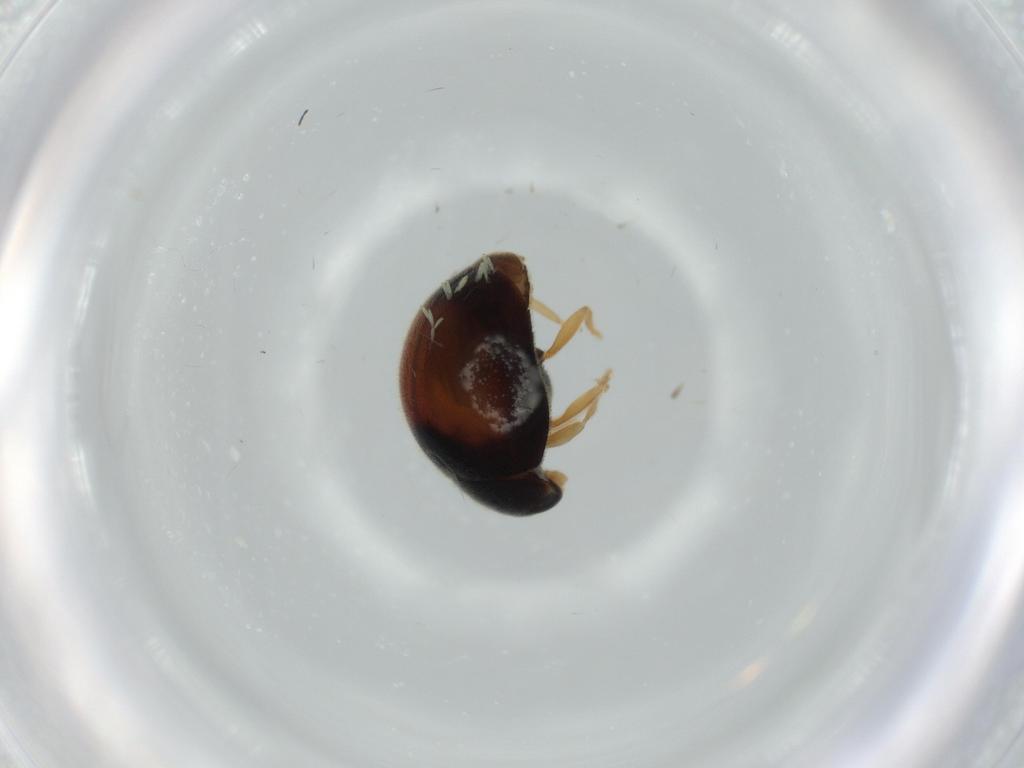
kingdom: Animalia
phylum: Arthropoda
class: Insecta
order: Coleoptera
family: Coccinellidae
